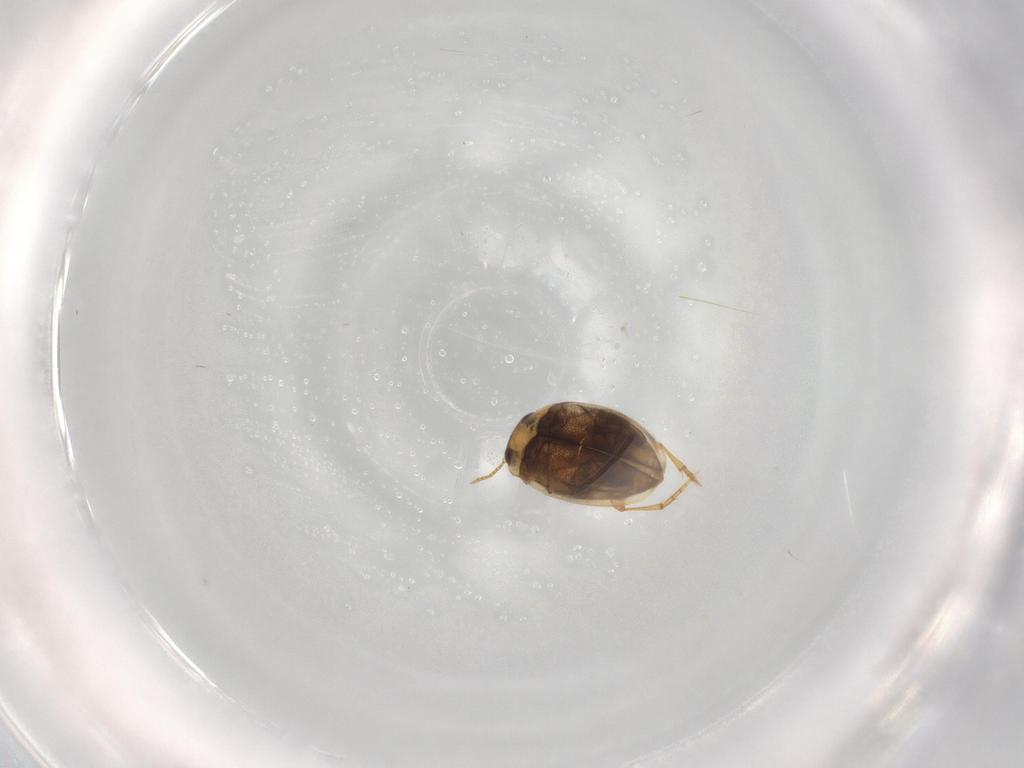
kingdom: Animalia
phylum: Arthropoda
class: Insecta
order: Coleoptera
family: Dytiscidae
